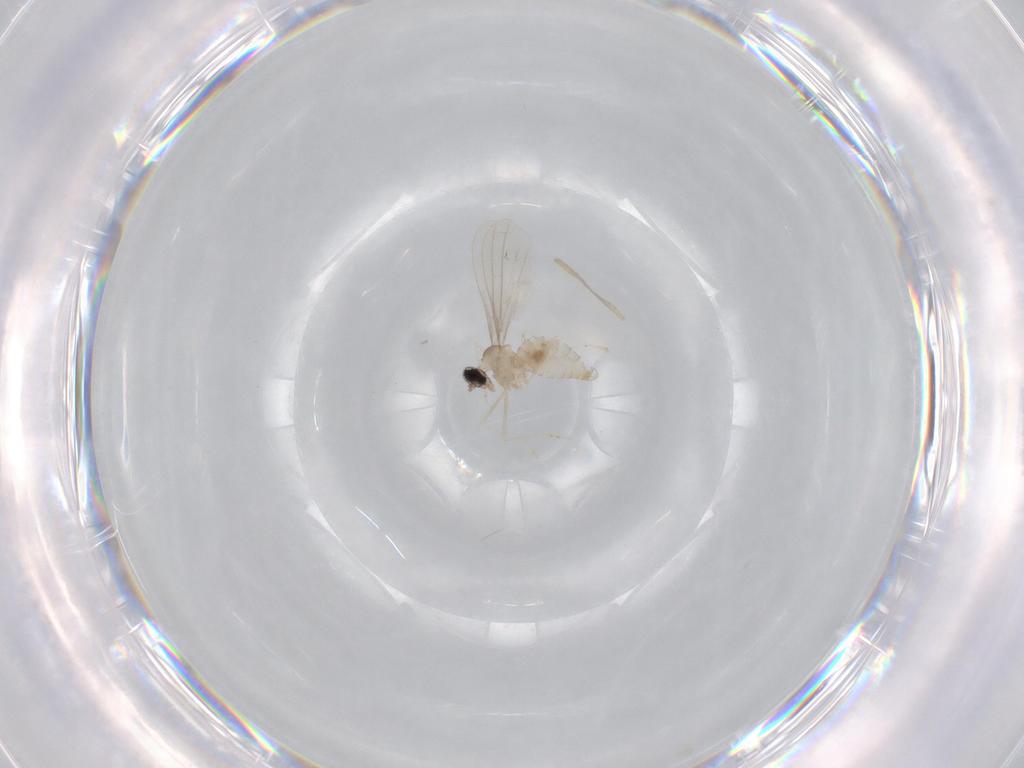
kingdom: Animalia
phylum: Arthropoda
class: Insecta
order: Diptera
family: Cecidomyiidae
